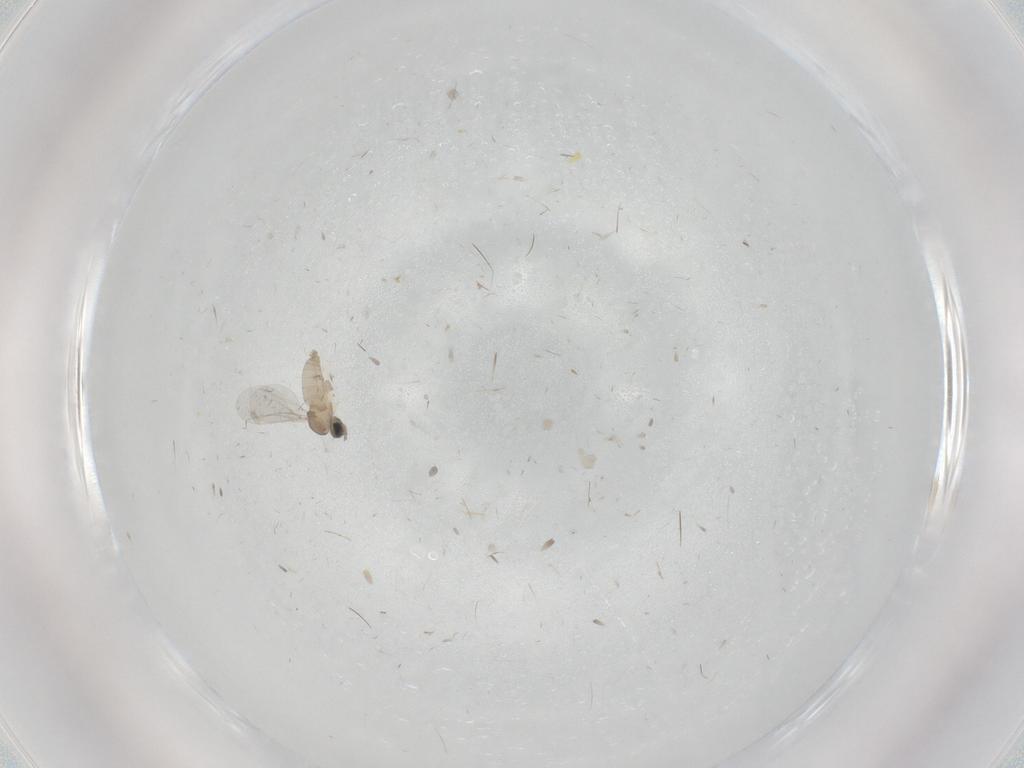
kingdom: Animalia
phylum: Arthropoda
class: Insecta
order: Diptera
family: Cecidomyiidae
